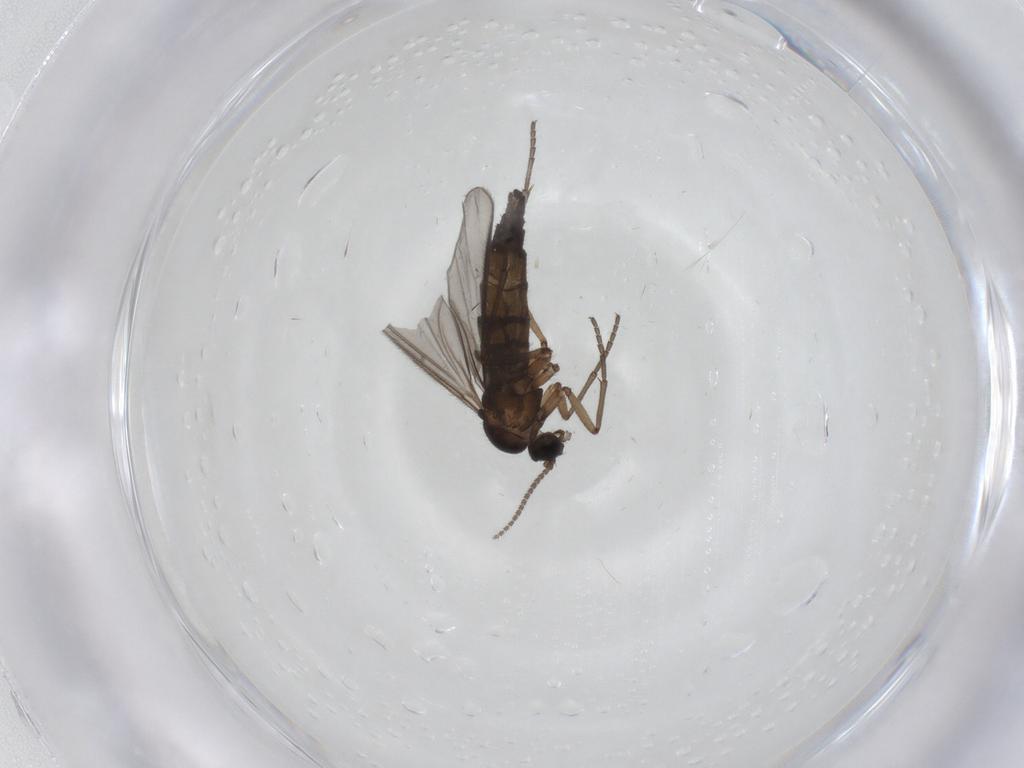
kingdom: Animalia
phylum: Arthropoda
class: Insecta
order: Diptera
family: Sciaridae
